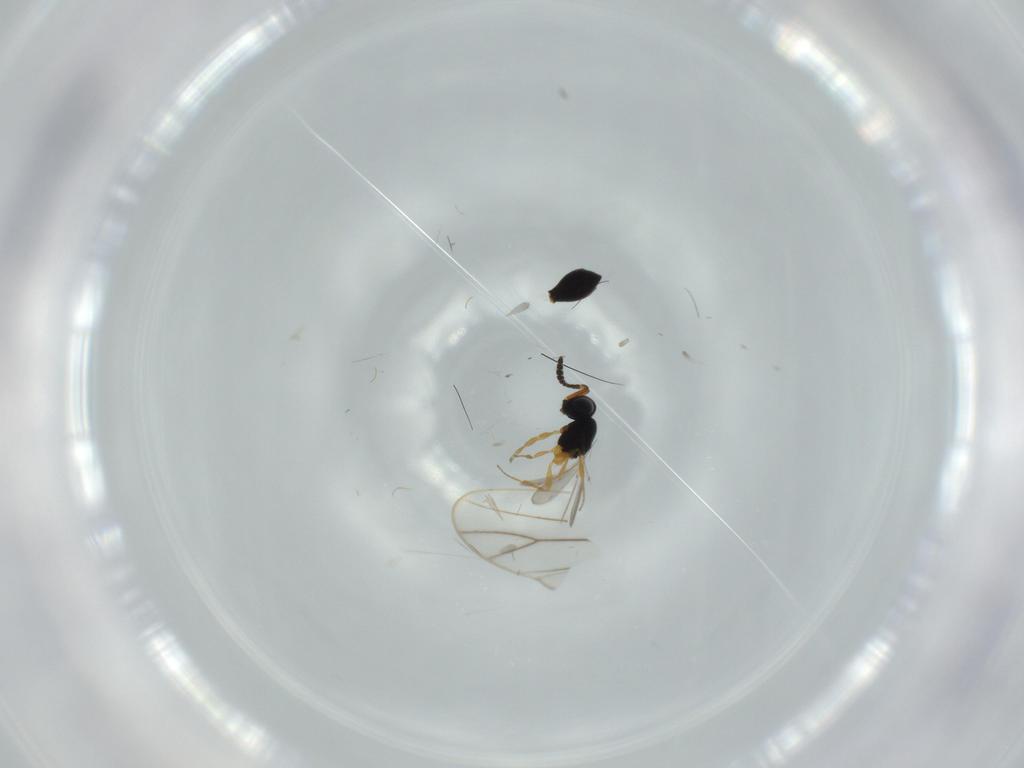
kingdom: Animalia
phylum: Arthropoda
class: Insecta
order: Hymenoptera
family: Scelionidae
